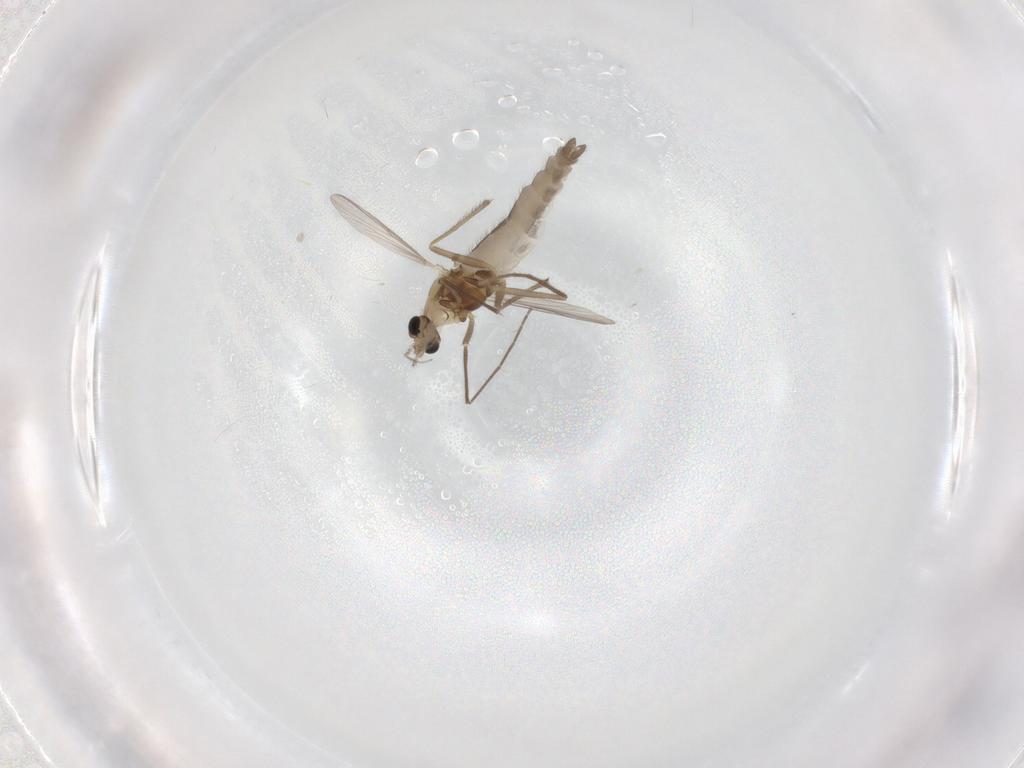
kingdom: Animalia
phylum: Arthropoda
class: Insecta
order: Diptera
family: Chironomidae
